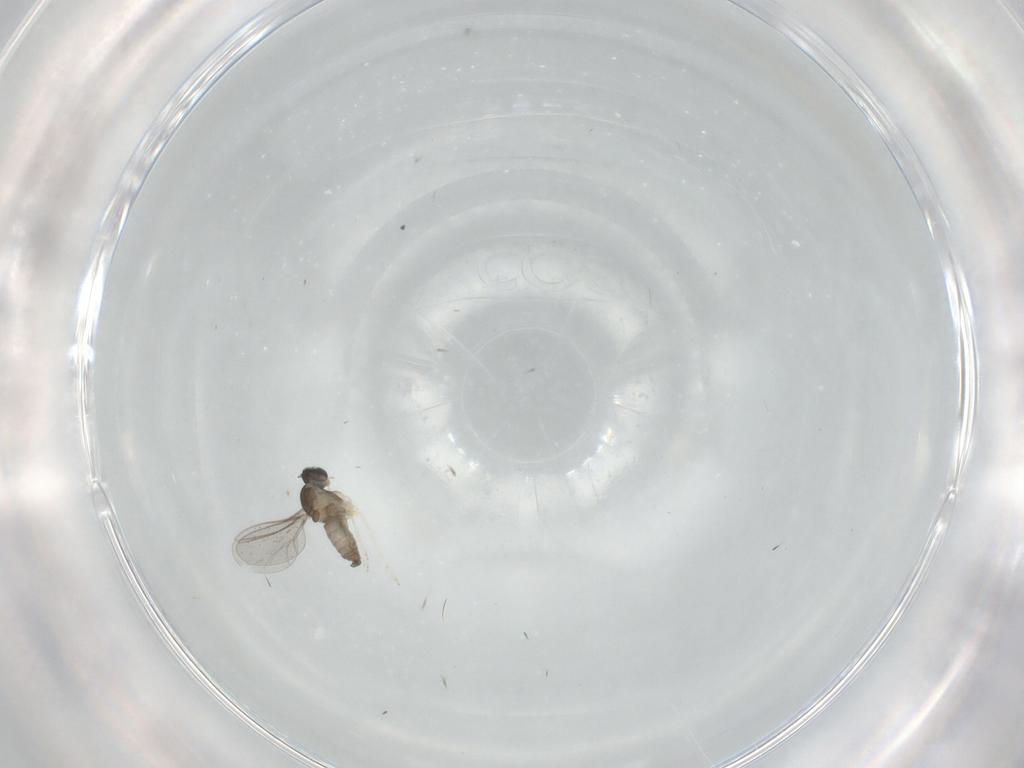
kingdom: Animalia
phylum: Arthropoda
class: Insecta
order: Diptera
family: Cecidomyiidae
